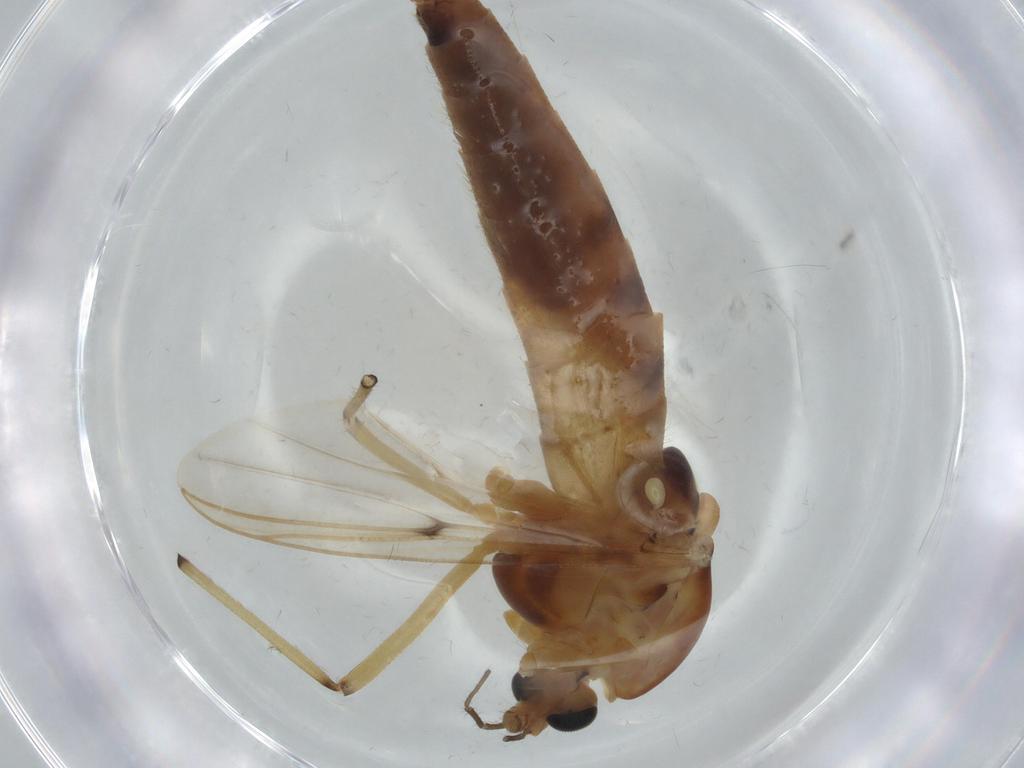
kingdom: Animalia
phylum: Arthropoda
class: Insecta
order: Diptera
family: Chironomidae
